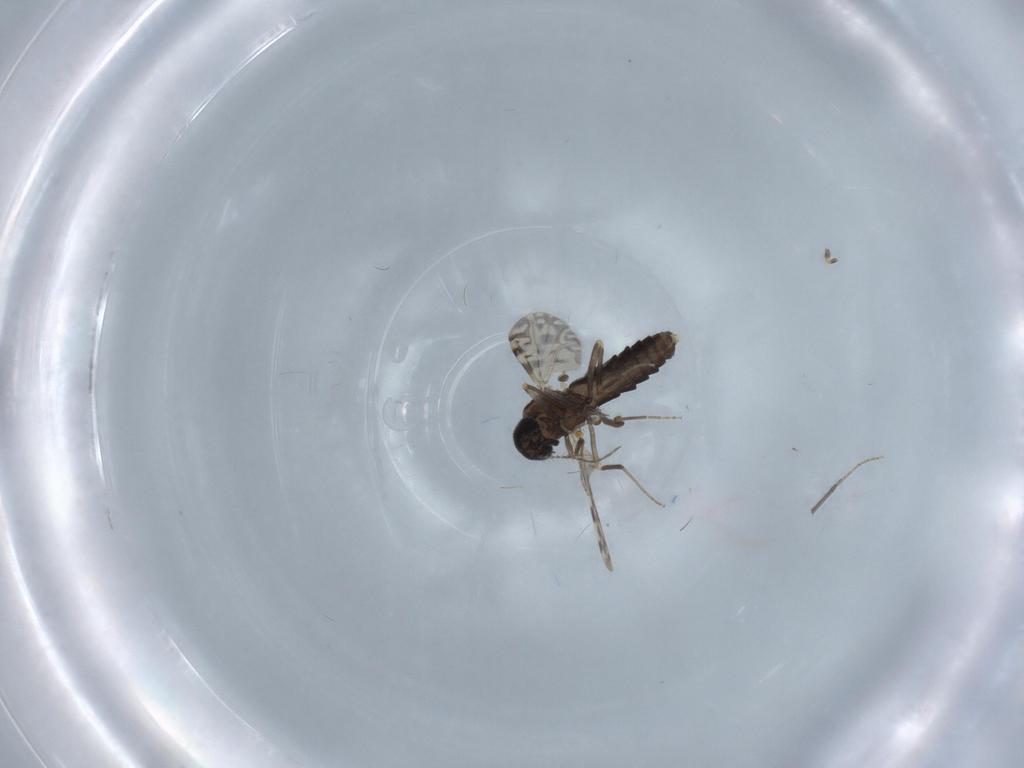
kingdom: Animalia
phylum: Arthropoda
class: Insecta
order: Diptera
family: Ceratopogonidae
